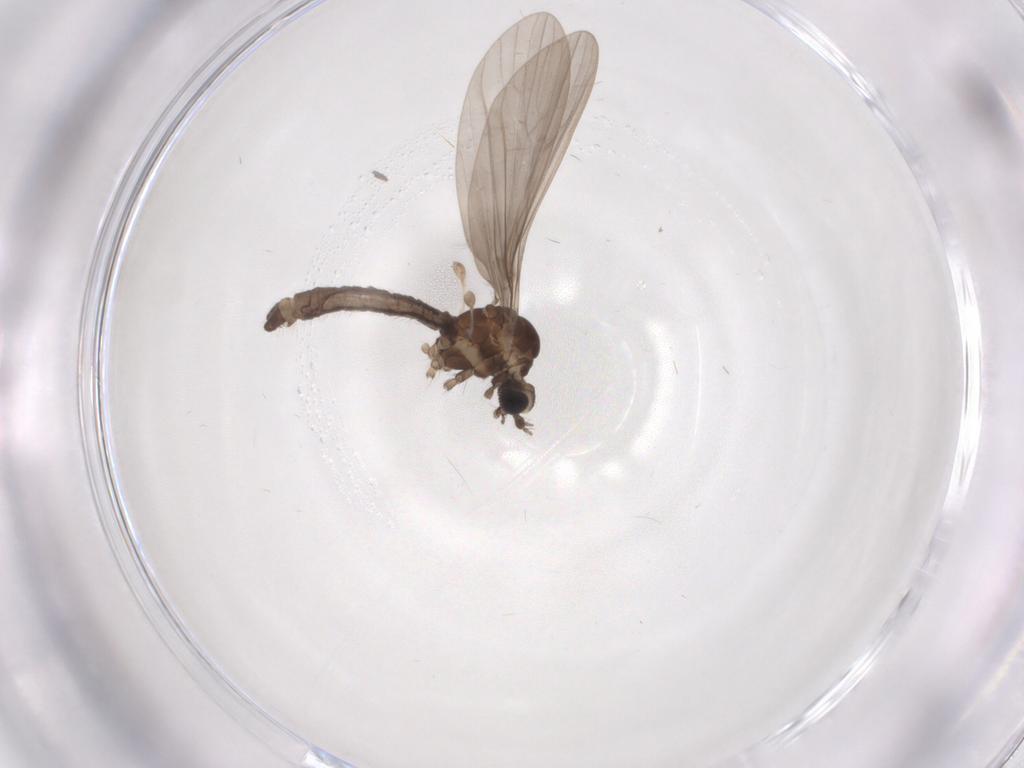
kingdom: Animalia
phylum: Arthropoda
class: Insecta
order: Diptera
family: Limoniidae
